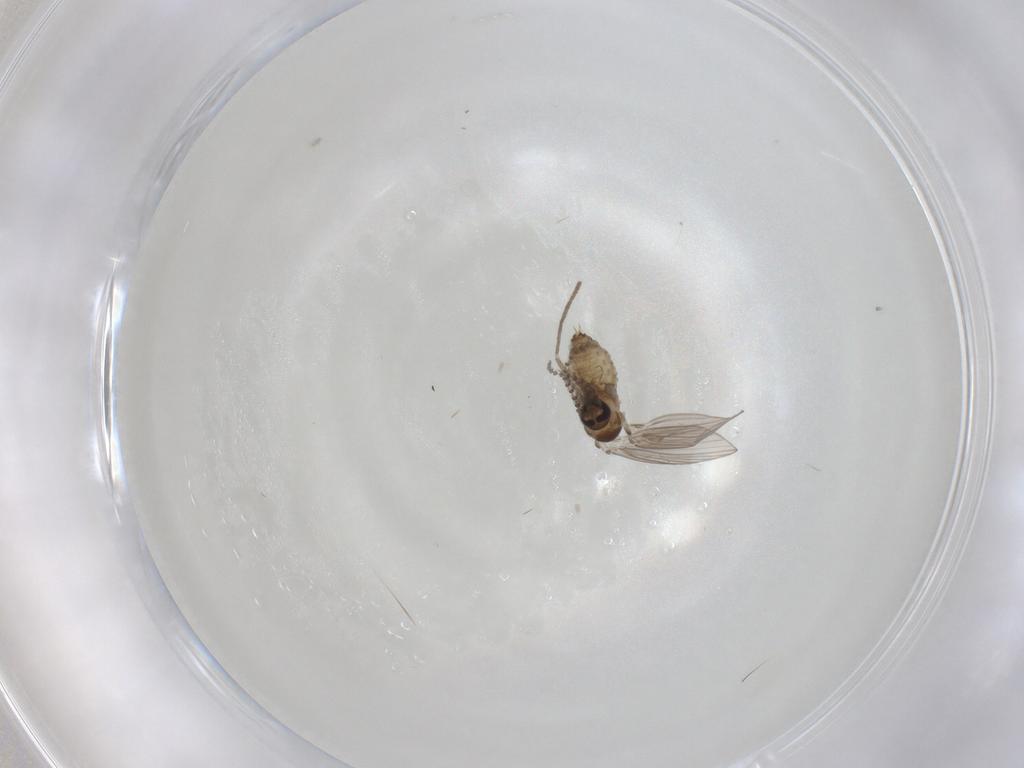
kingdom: Animalia
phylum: Arthropoda
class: Insecta
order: Diptera
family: Psychodidae
